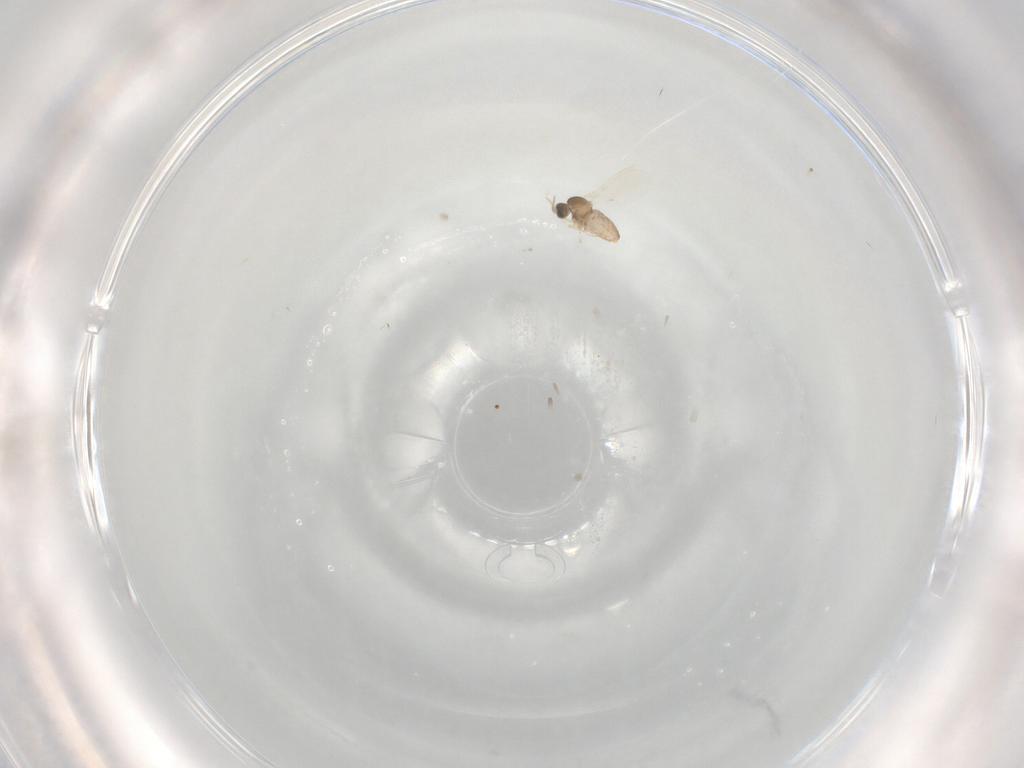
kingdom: Animalia
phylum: Arthropoda
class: Insecta
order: Diptera
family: Cecidomyiidae
